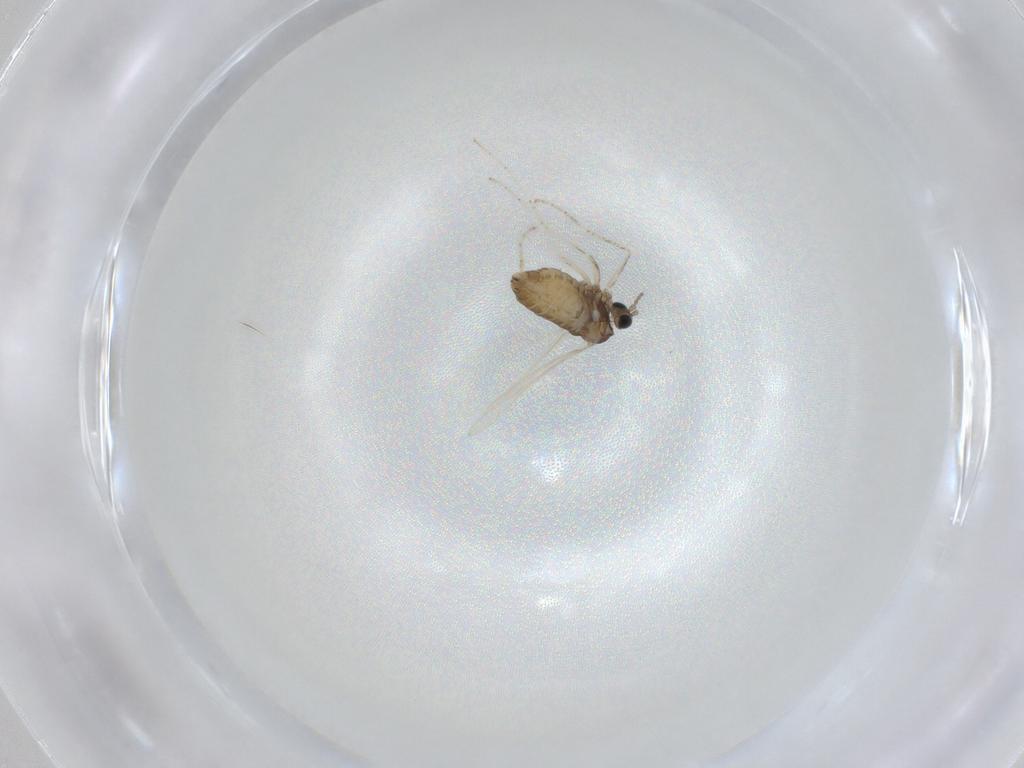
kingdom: Animalia
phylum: Arthropoda
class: Insecta
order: Diptera
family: Cecidomyiidae
